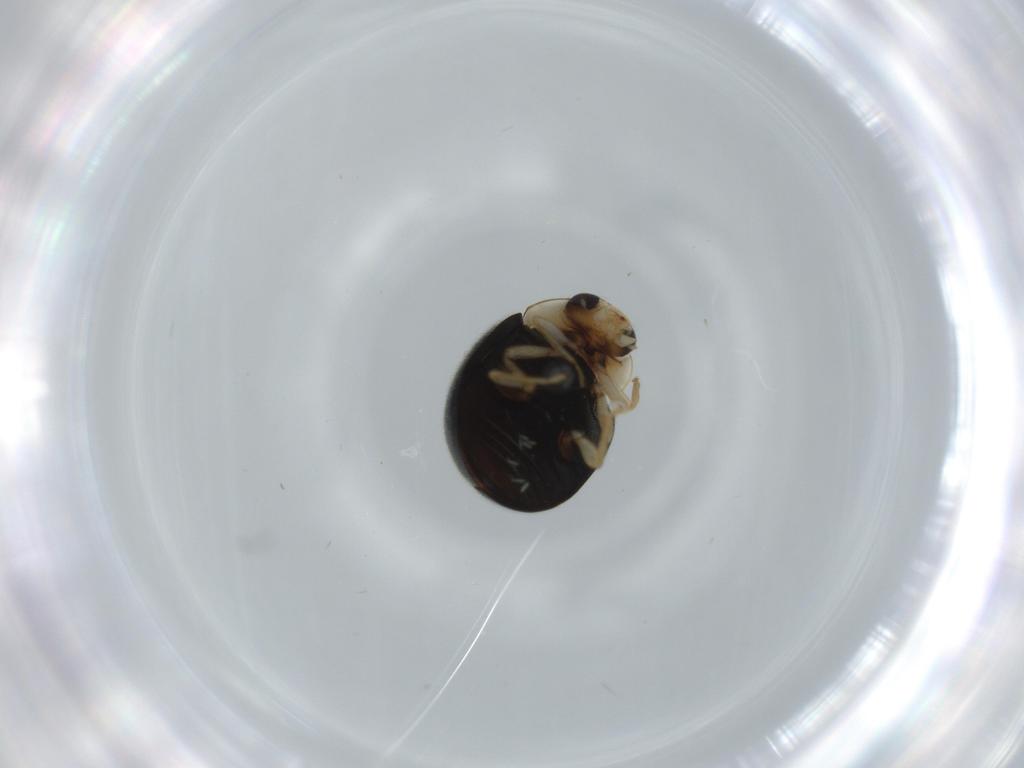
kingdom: Animalia
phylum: Arthropoda
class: Insecta
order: Coleoptera
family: Coccinellidae
